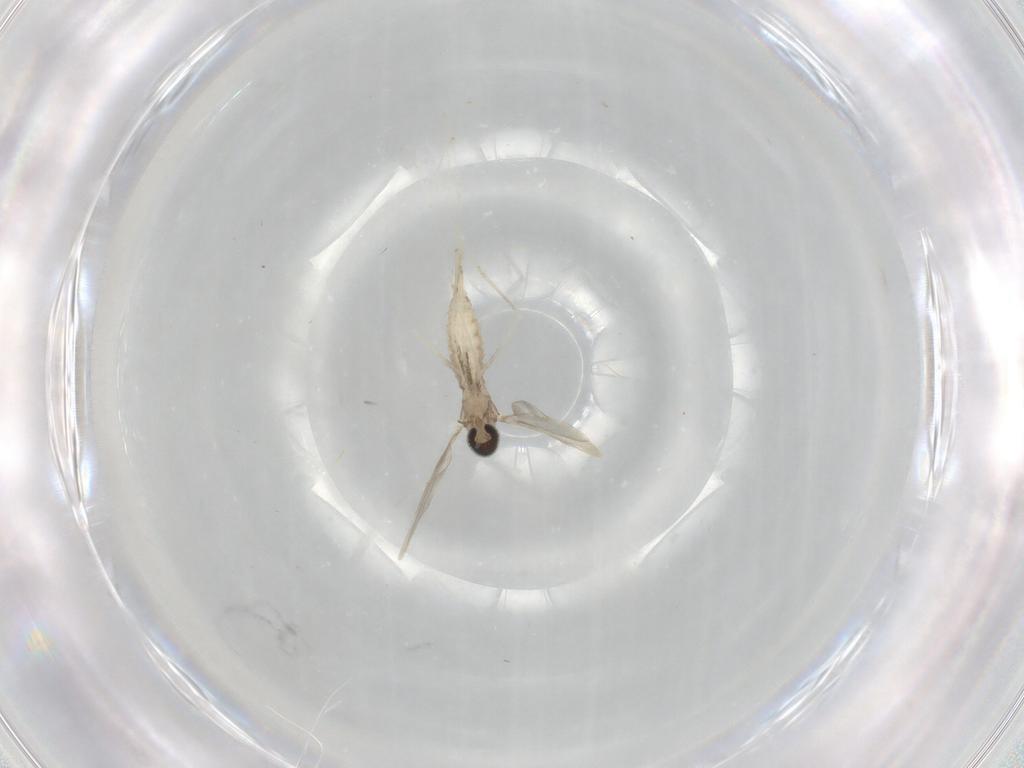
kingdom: Animalia
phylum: Arthropoda
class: Insecta
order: Diptera
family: Cecidomyiidae
